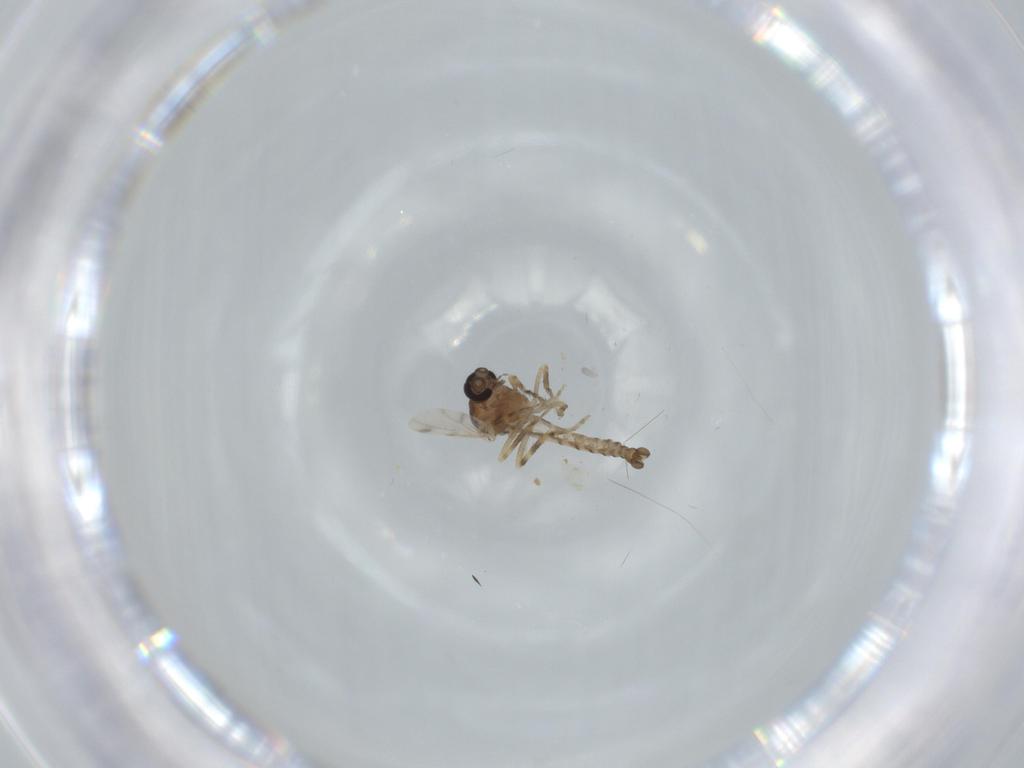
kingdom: Animalia
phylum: Arthropoda
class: Insecta
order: Diptera
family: Ceratopogonidae
